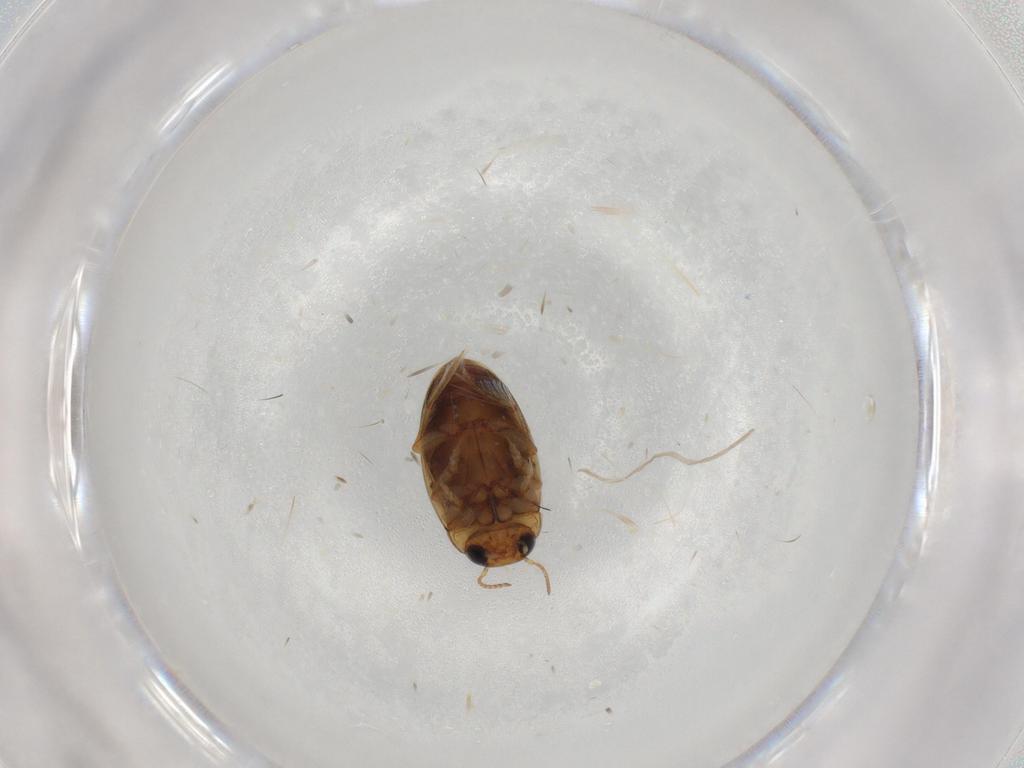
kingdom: Animalia
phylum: Arthropoda
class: Insecta
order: Coleoptera
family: Dytiscidae
